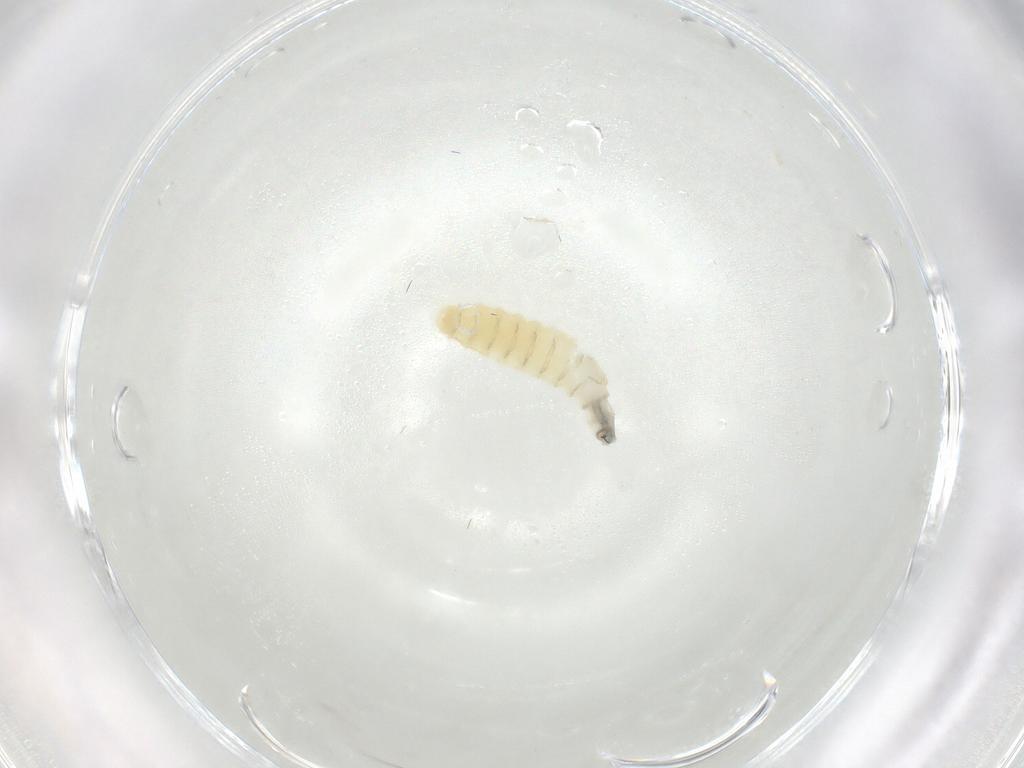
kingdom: Animalia
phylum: Arthropoda
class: Insecta
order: Diptera
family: Sarcophagidae
